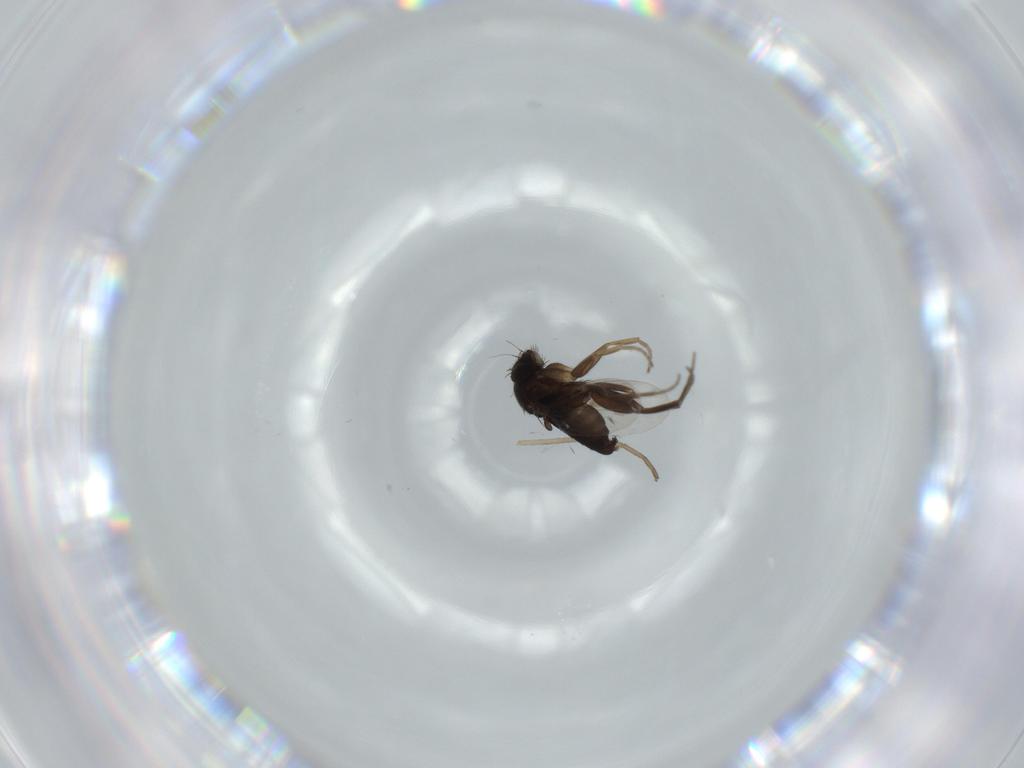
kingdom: Animalia
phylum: Arthropoda
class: Insecta
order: Diptera
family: Phoridae
